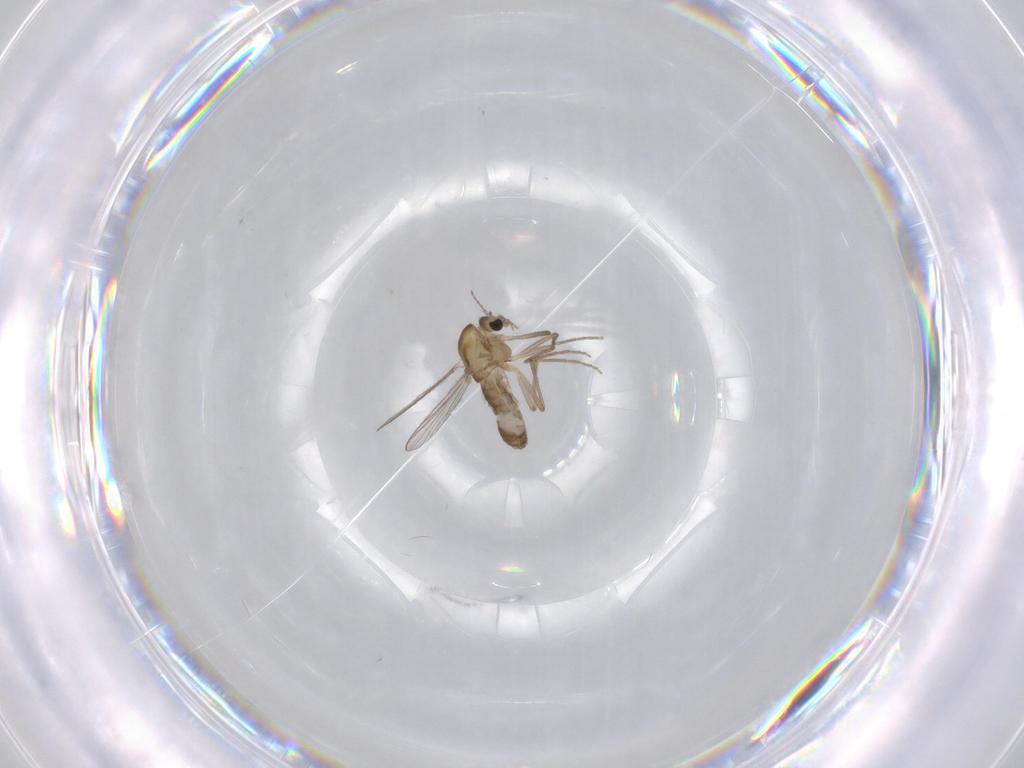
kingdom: Animalia
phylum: Arthropoda
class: Insecta
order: Diptera
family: Chironomidae
